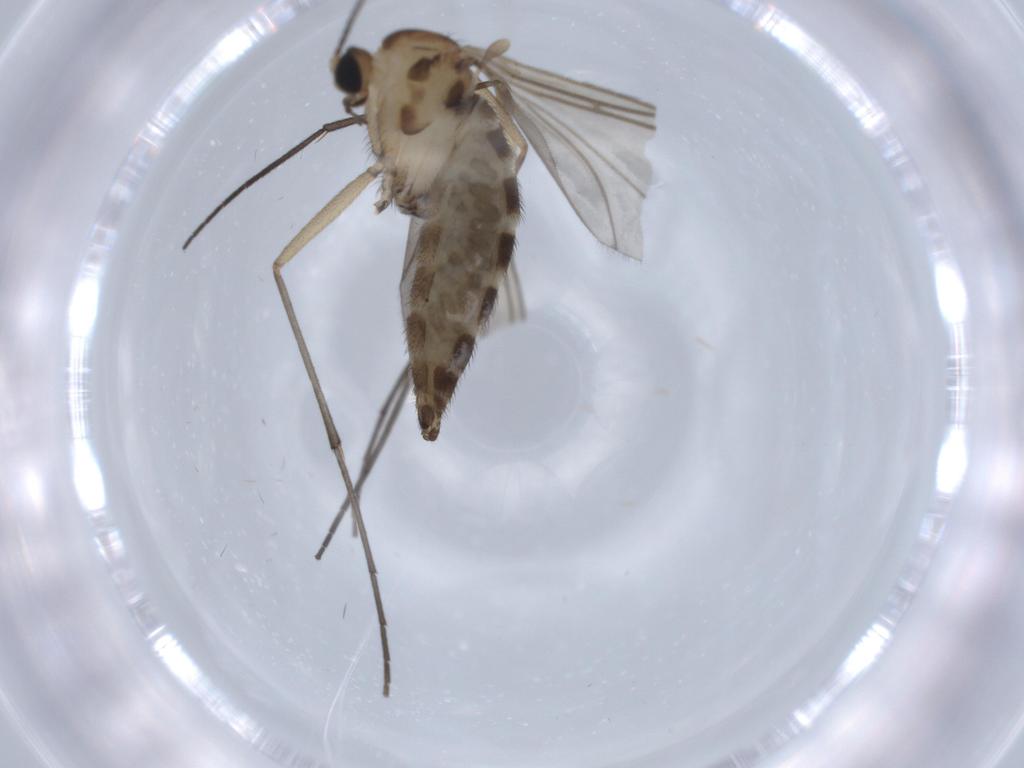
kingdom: Animalia
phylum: Arthropoda
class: Insecta
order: Diptera
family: Sciaridae
